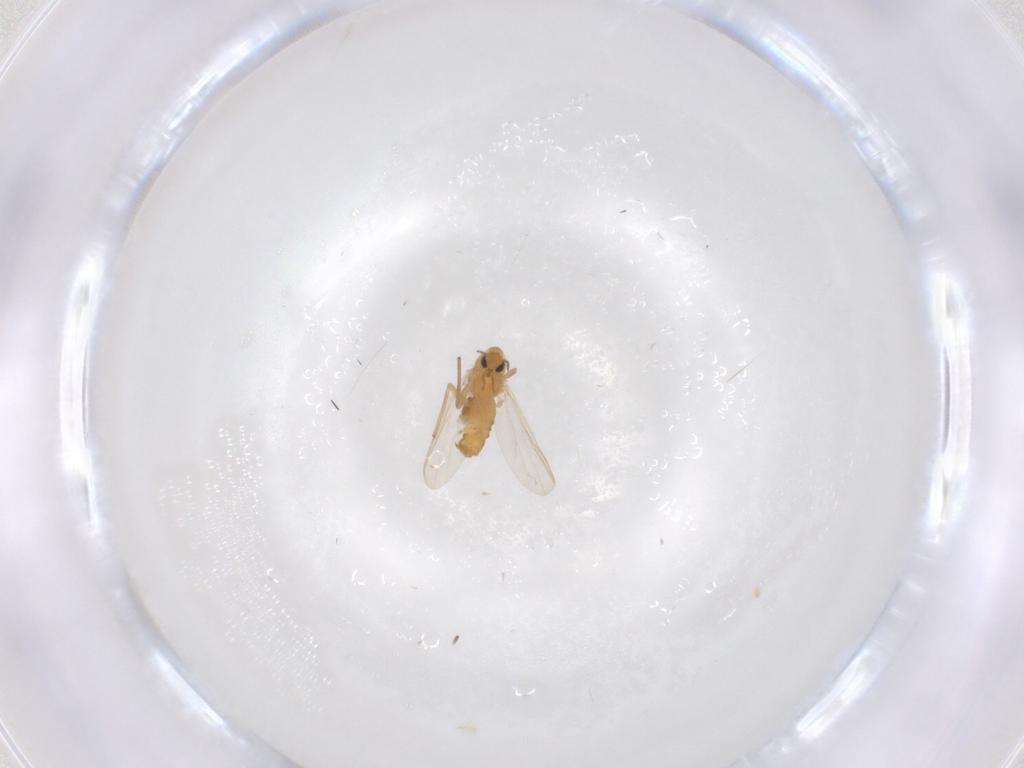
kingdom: Animalia
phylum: Arthropoda
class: Insecta
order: Diptera
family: Chironomidae
